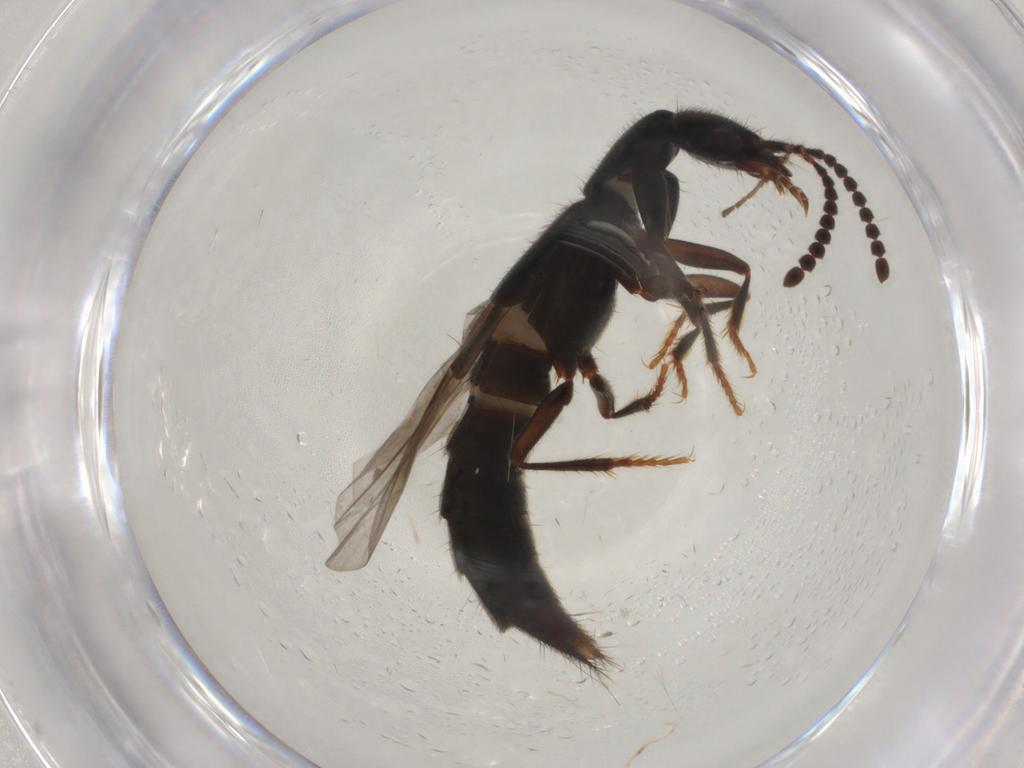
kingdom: Animalia
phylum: Arthropoda
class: Insecta
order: Coleoptera
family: Staphylinidae
